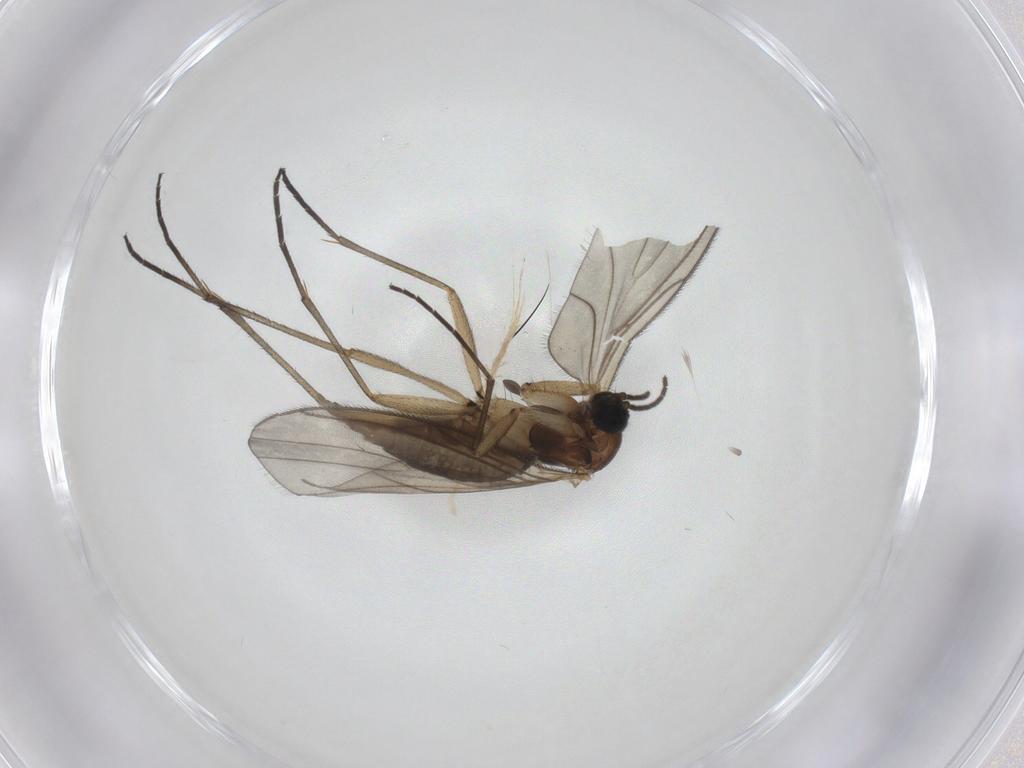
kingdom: Animalia
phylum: Arthropoda
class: Insecta
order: Diptera
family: Sciaridae
